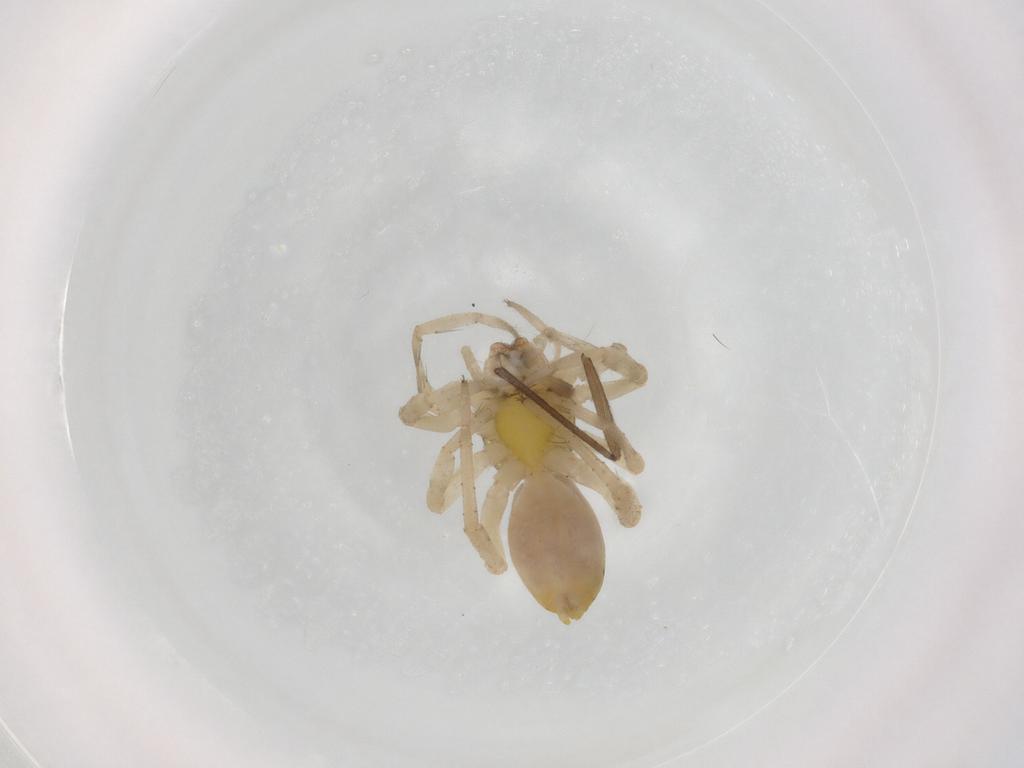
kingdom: Animalia
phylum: Arthropoda
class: Arachnida
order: Araneae
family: Anyphaenidae
